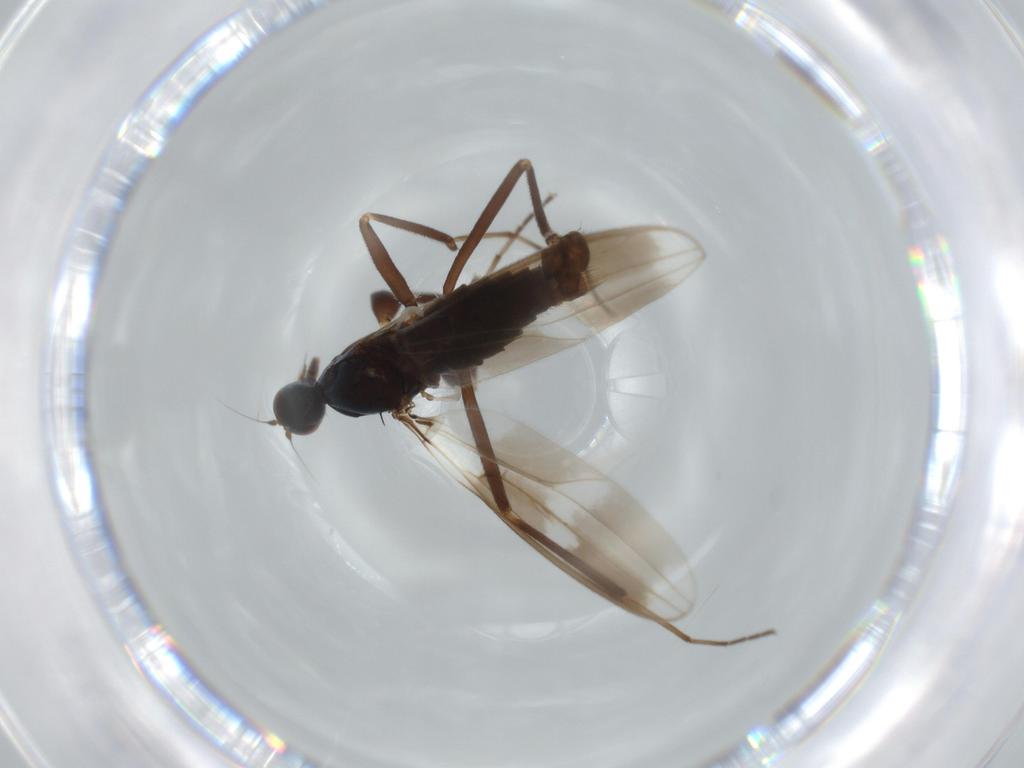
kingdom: Animalia
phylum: Arthropoda
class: Insecta
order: Diptera
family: Hybotidae
